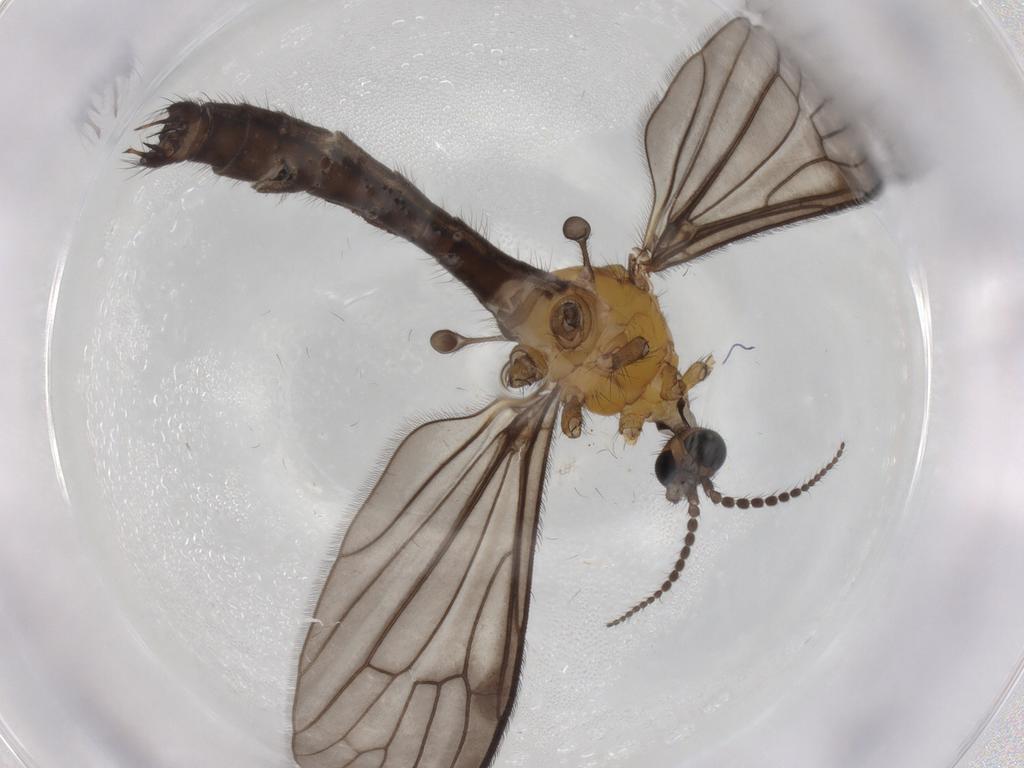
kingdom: Animalia
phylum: Arthropoda
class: Insecta
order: Diptera
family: Limoniidae
